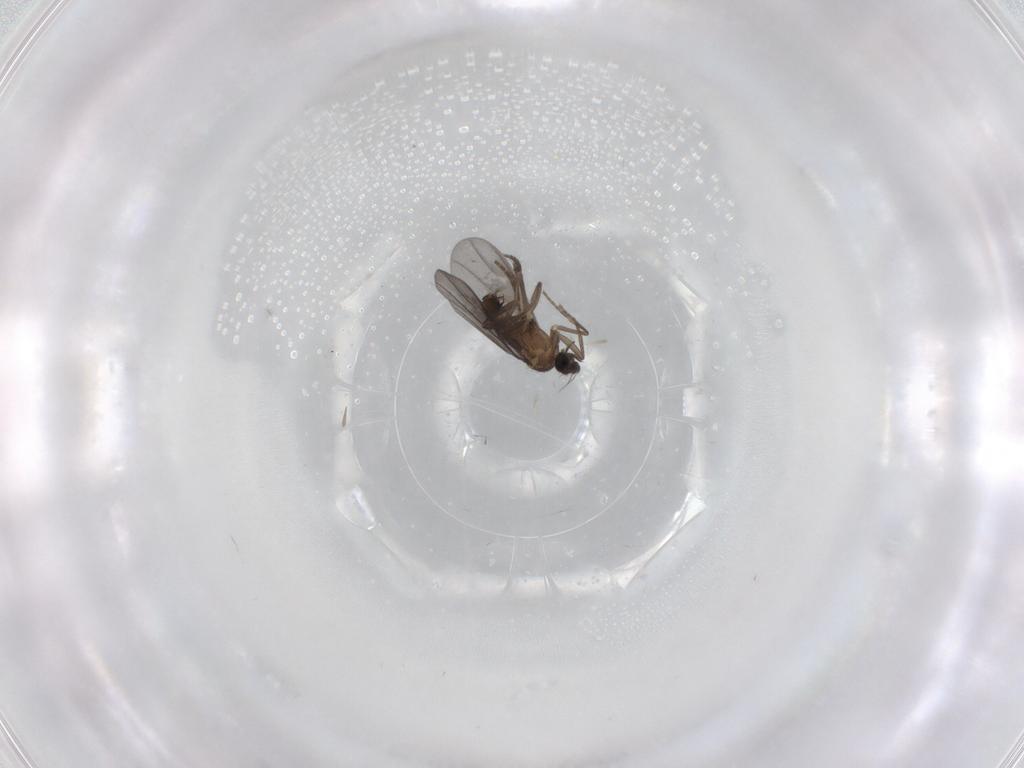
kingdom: Animalia
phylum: Arthropoda
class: Insecta
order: Diptera
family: Phoridae
